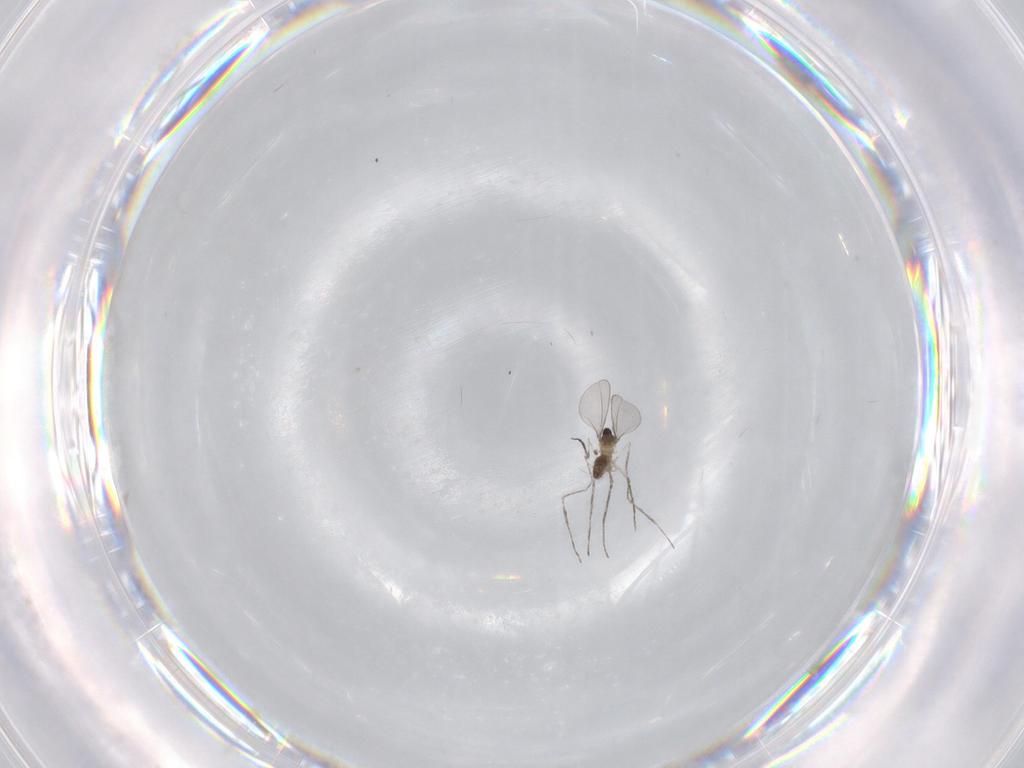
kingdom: Animalia
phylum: Arthropoda
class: Insecta
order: Diptera
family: Cecidomyiidae
